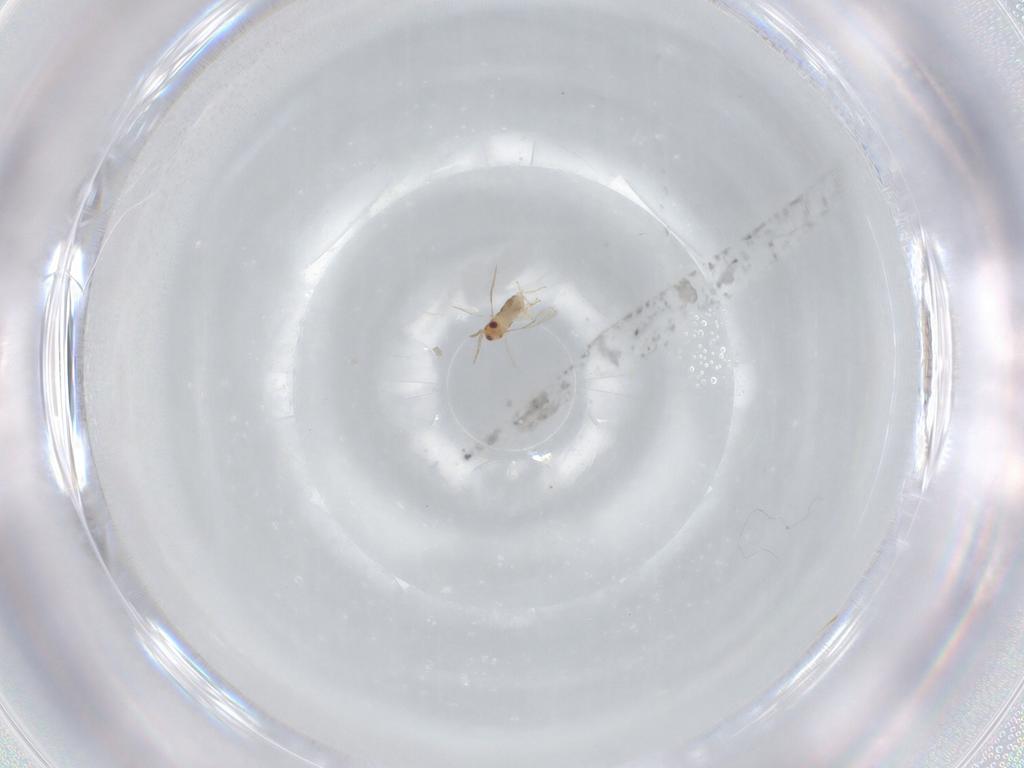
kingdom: Animalia
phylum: Arthropoda
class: Insecta
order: Hymenoptera
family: Aphelinidae
